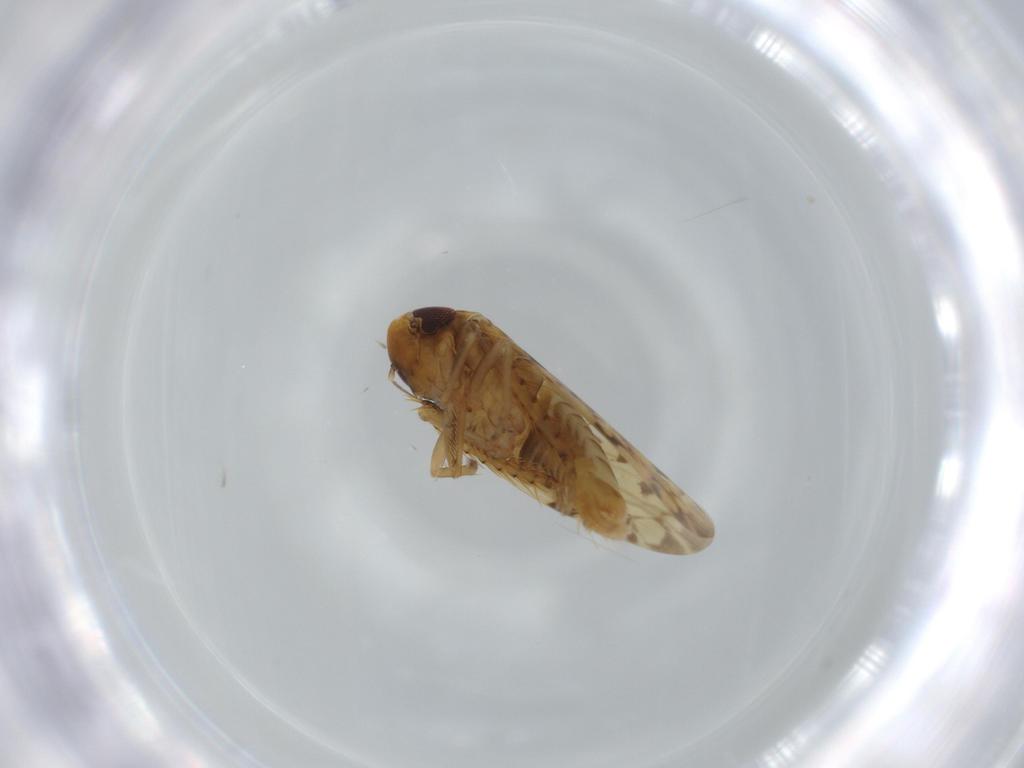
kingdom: Animalia
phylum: Arthropoda
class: Insecta
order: Hemiptera
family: Cicadellidae
